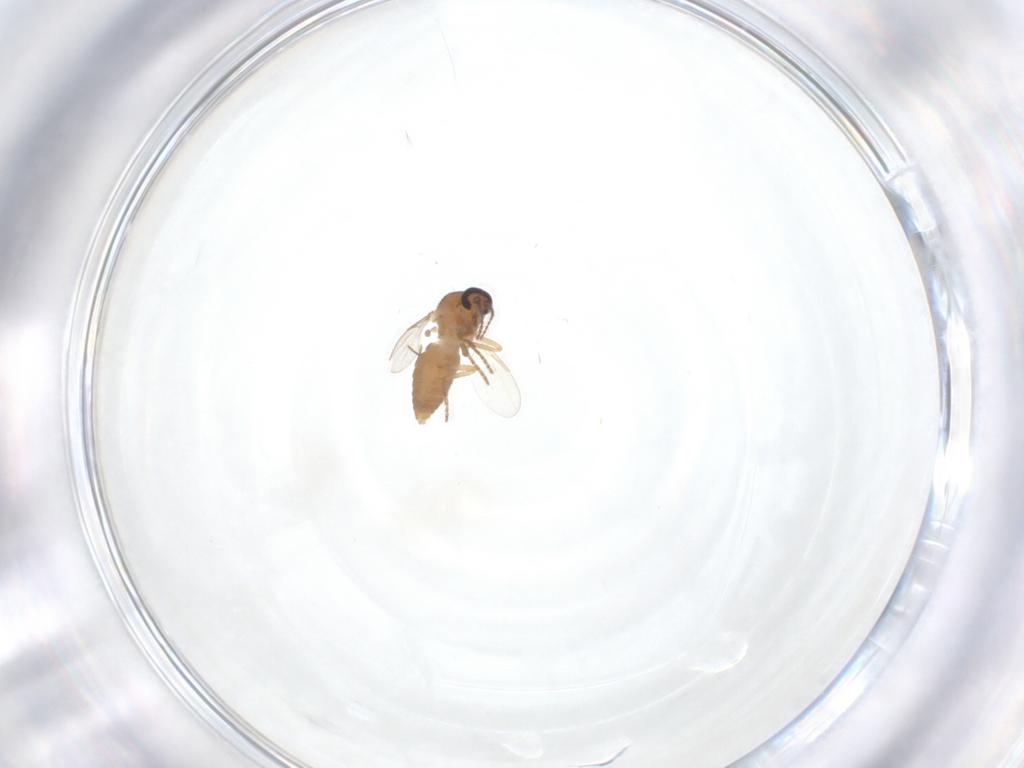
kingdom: Animalia
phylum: Arthropoda
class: Insecta
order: Diptera
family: Ceratopogonidae
